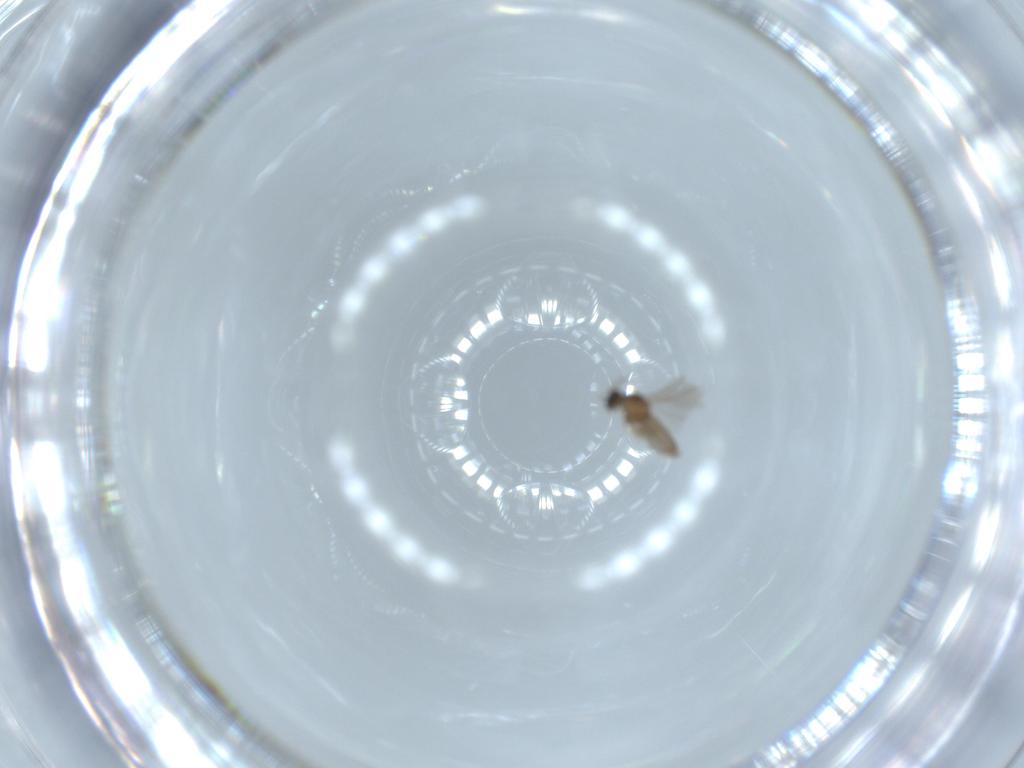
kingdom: Animalia
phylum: Arthropoda
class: Insecta
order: Diptera
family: Cecidomyiidae
